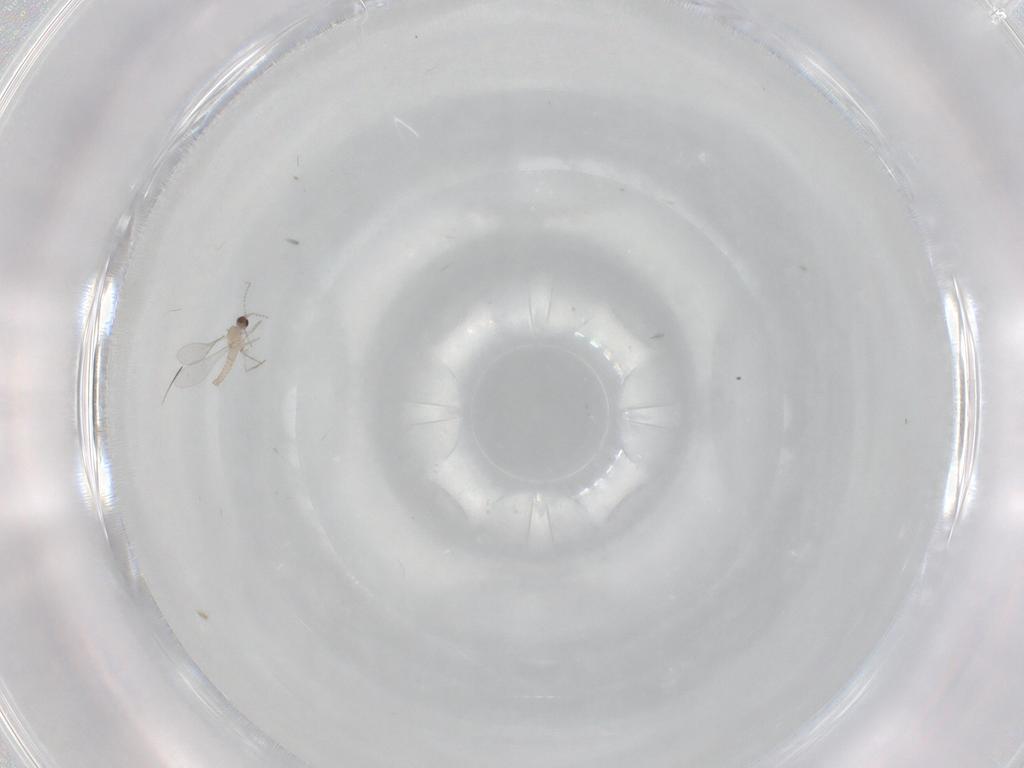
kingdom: Animalia
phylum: Arthropoda
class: Insecta
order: Diptera
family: Cecidomyiidae
